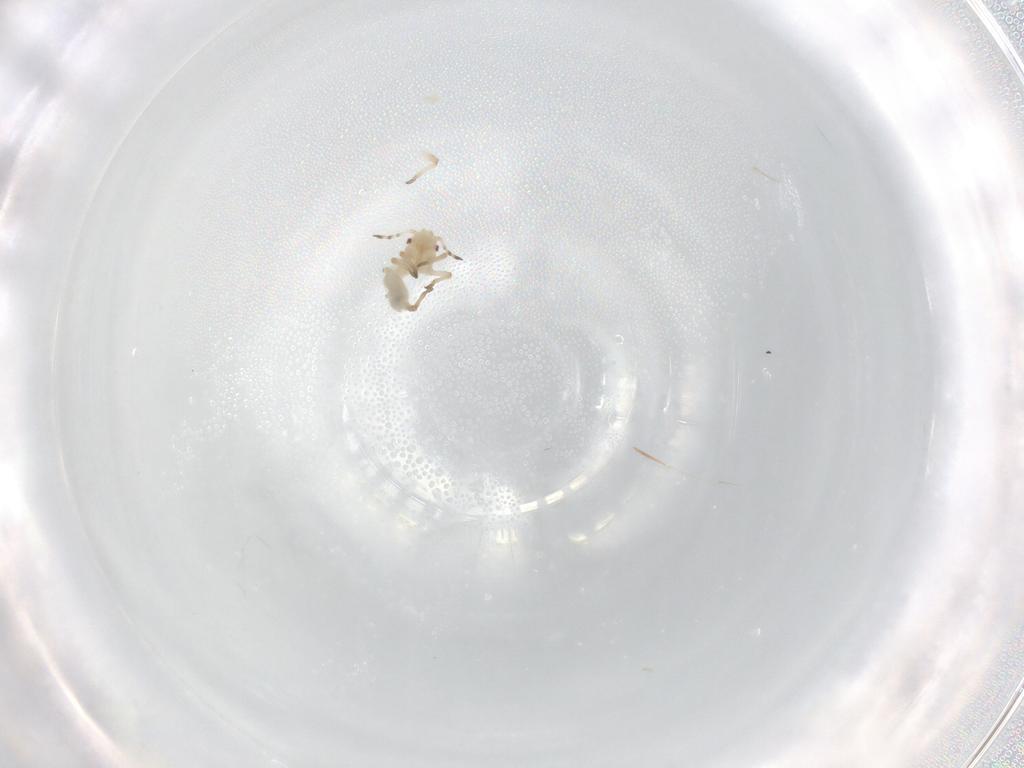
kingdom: Animalia
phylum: Arthropoda
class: Insecta
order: Hemiptera
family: Aphididae
